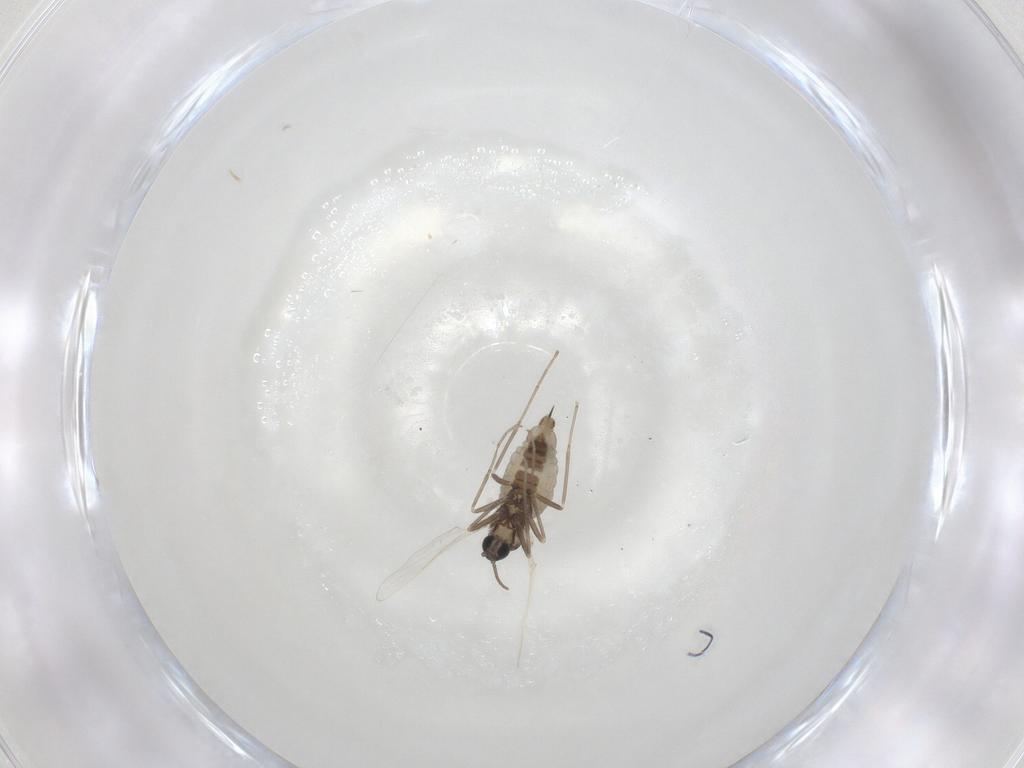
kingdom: Animalia
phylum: Arthropoda
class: Insecta
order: Diptera
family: Cecidomyiidae
